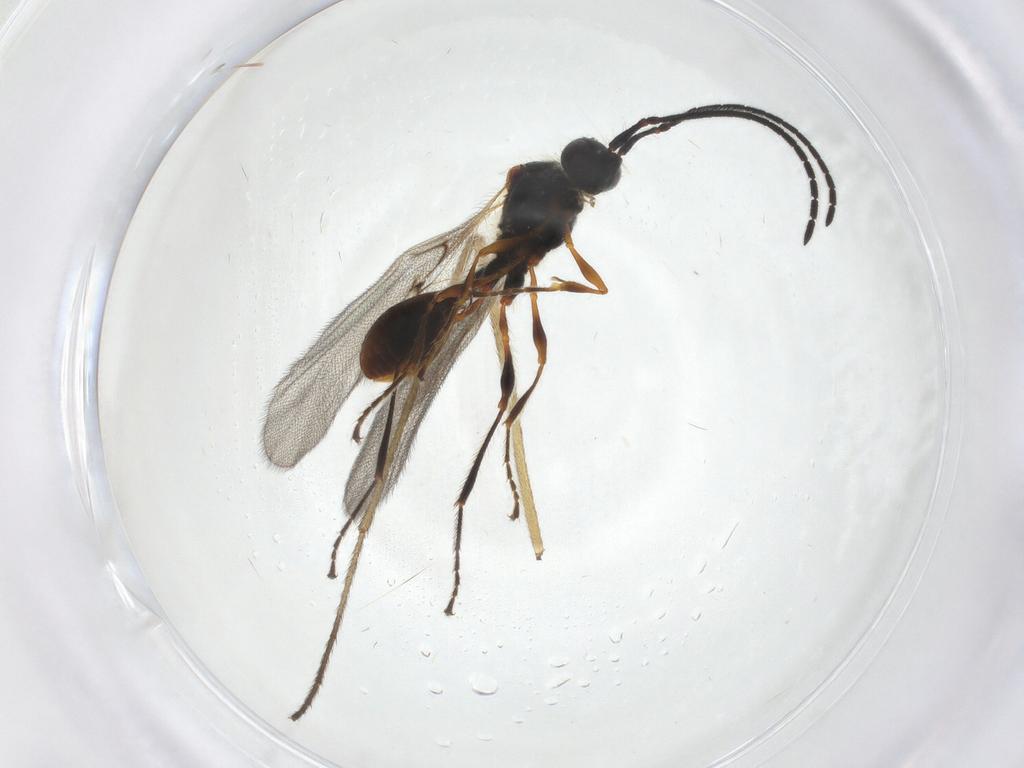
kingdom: Animalia
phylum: Arthropoda
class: Insecta
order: Hymenoptera
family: Diapriidae
